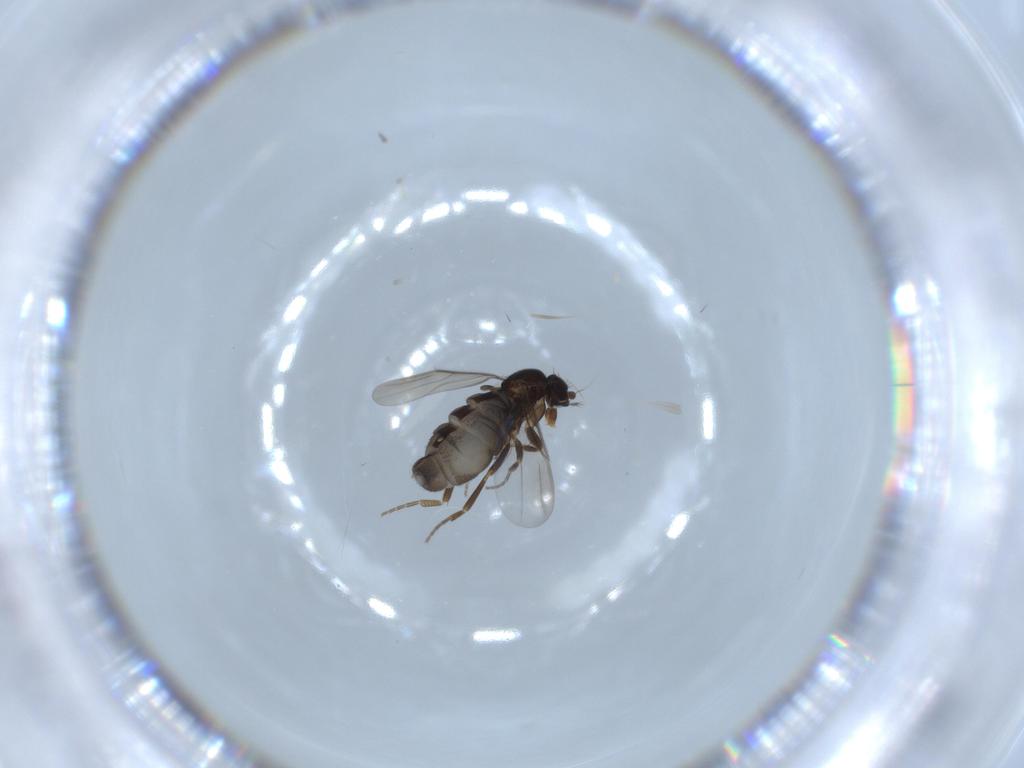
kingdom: Animalia
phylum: Arthropoda
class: Insecta
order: Diptera
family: Phoridae
